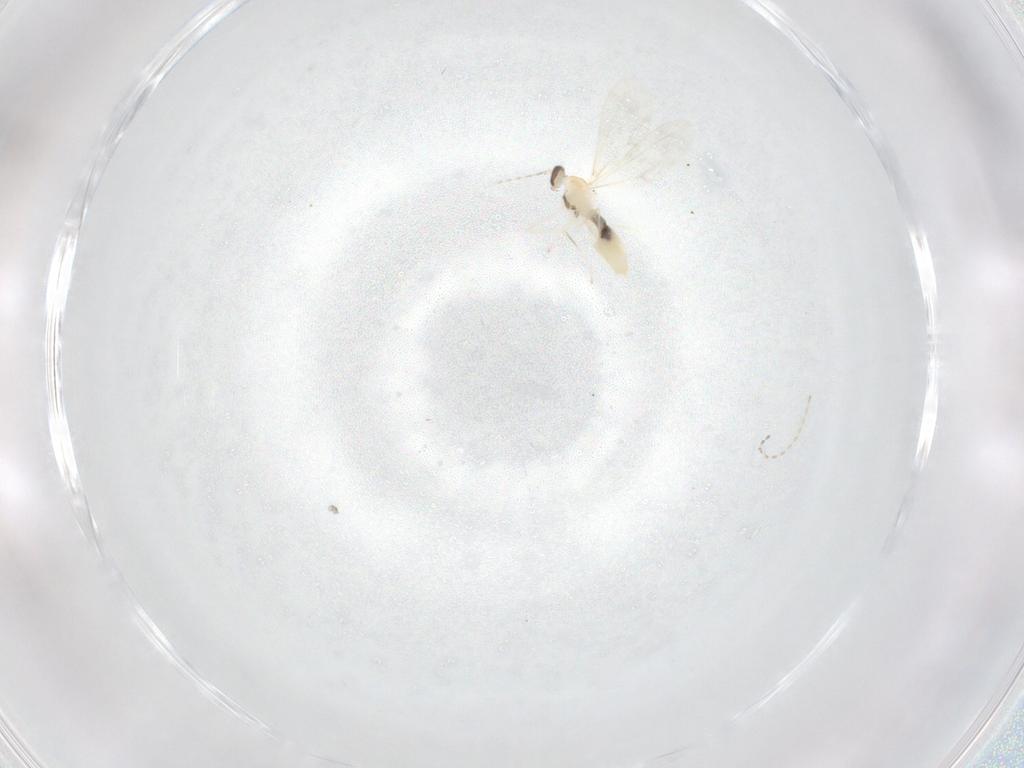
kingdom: Animalia
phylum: Arthropoda
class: Insecta
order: Diptera
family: Cecidomyiidae
